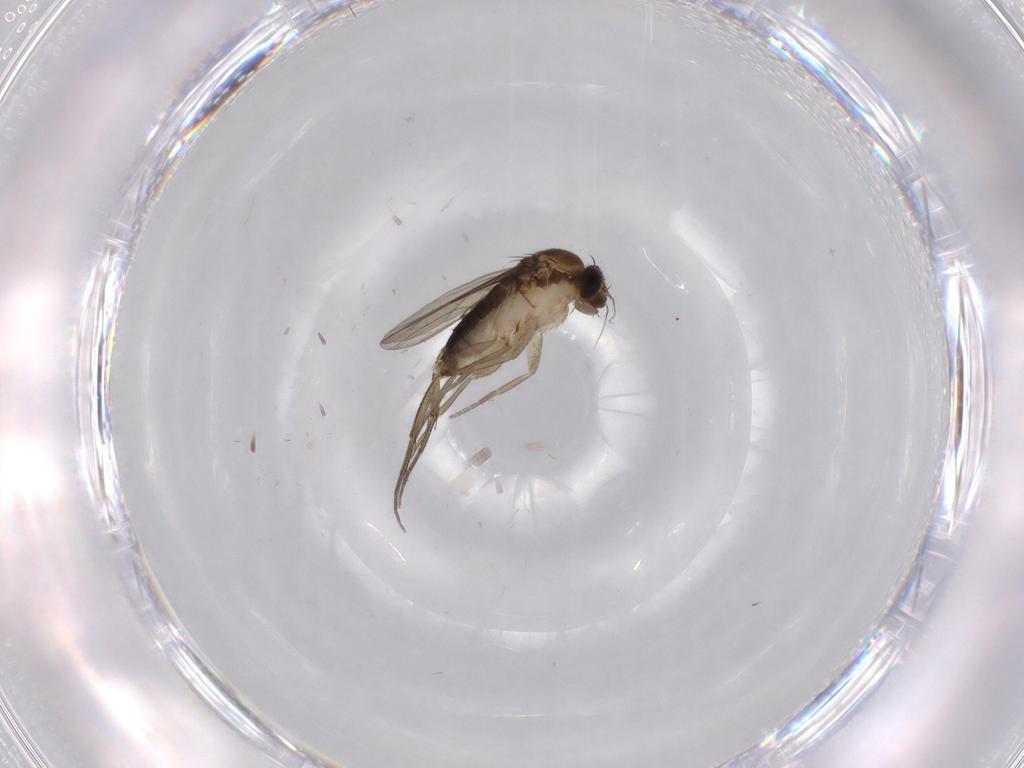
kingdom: Animalia
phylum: Arthropoda
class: Insecta
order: Diptera
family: Phoridae
